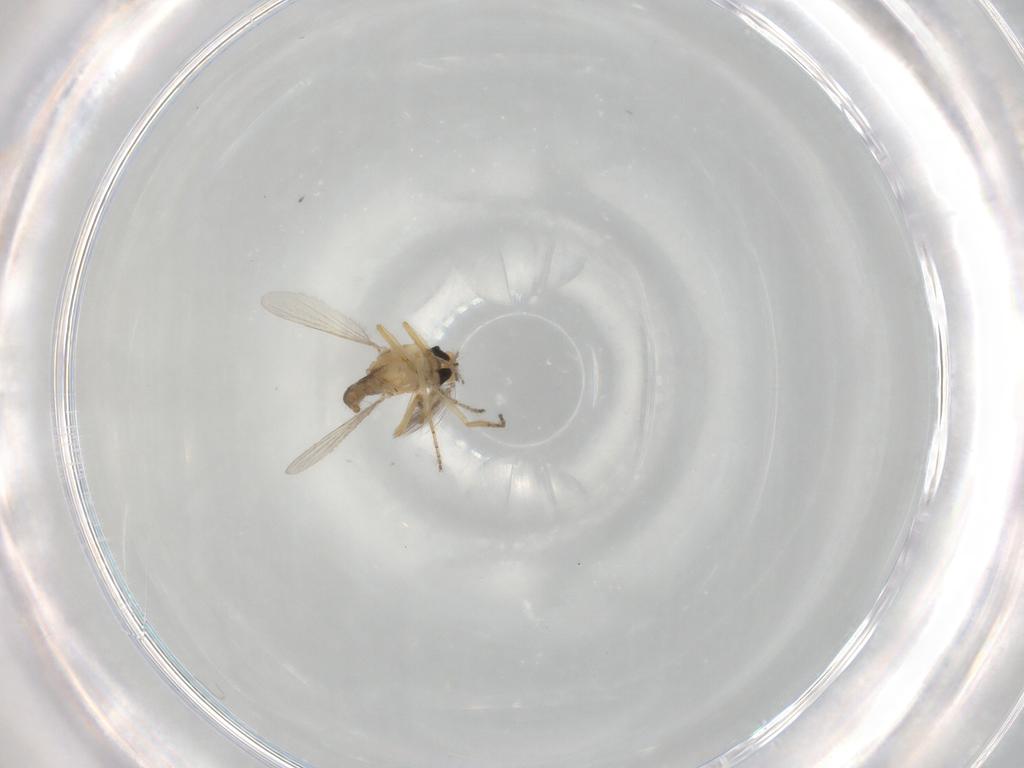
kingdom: Animalia
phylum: Arthropoda
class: Insecta
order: Diptera
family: Ceratopogonidae
